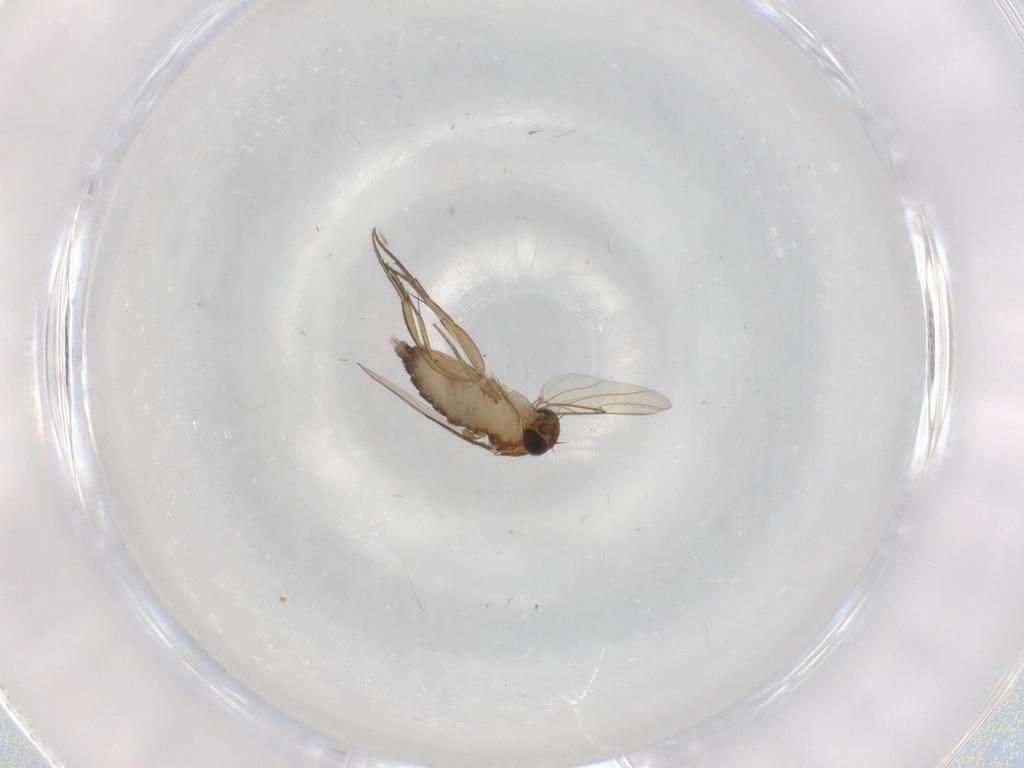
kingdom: Animalia
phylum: Arthropoda
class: Insecta
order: Diptera
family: Phoridae
